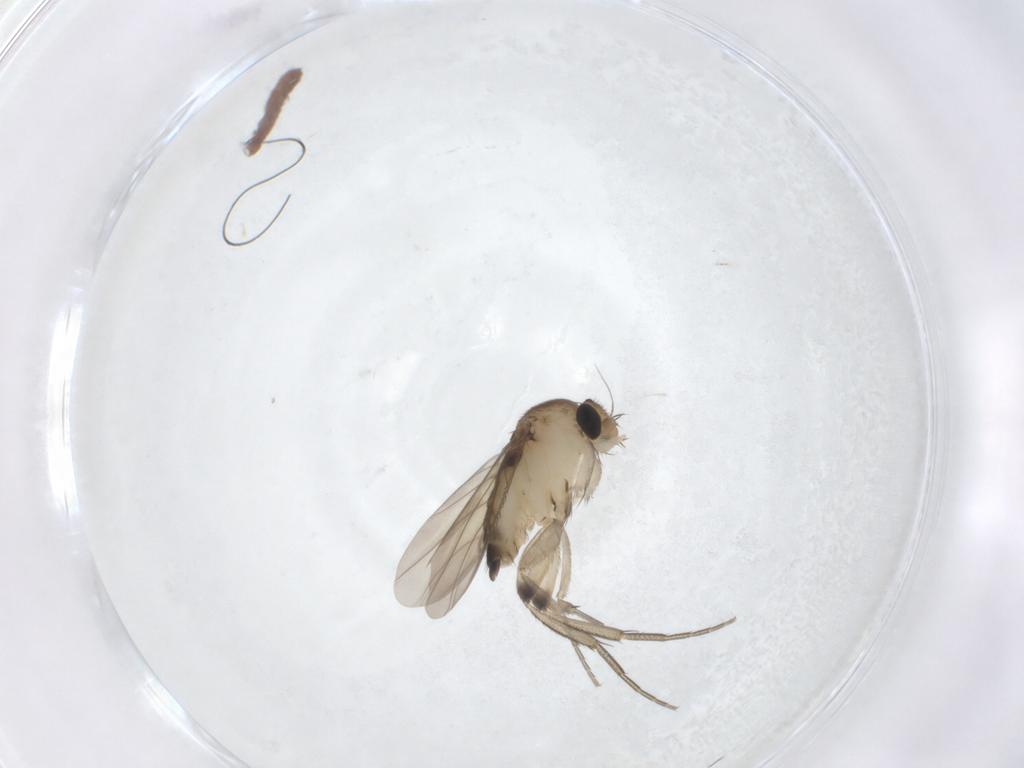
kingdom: Animalia
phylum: Arthropoda
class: Insecta
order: Diptera
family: Phoridae
